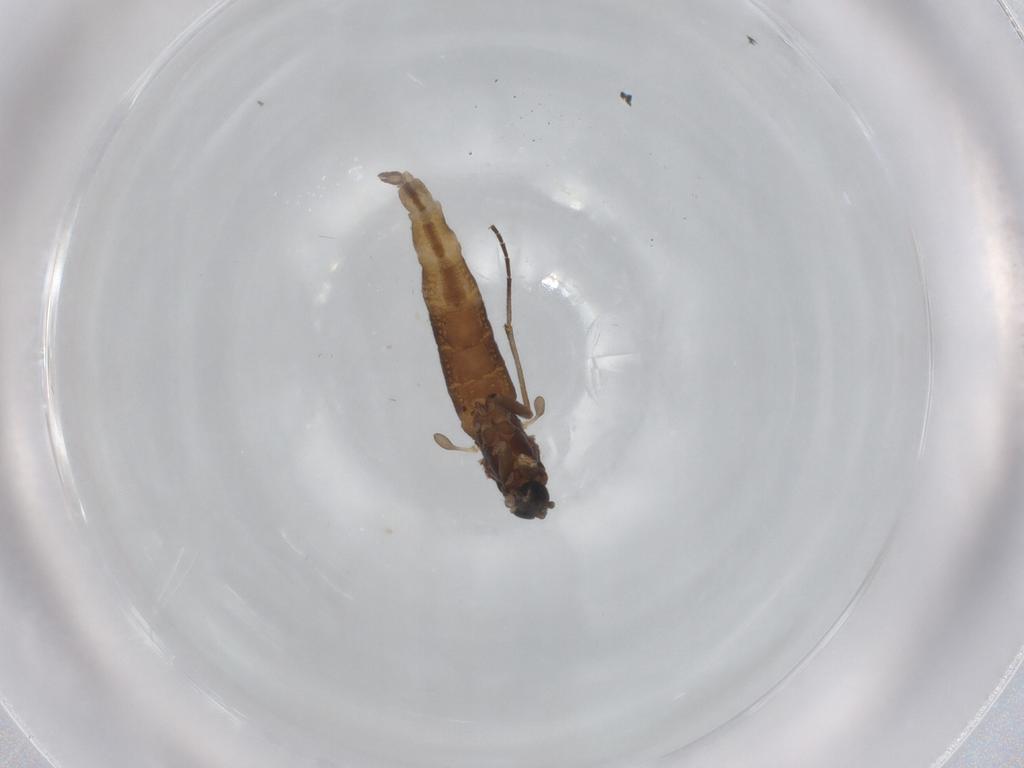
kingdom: Animalia
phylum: Arthropoda
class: Insecta
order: Diptera
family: Sciaridae
